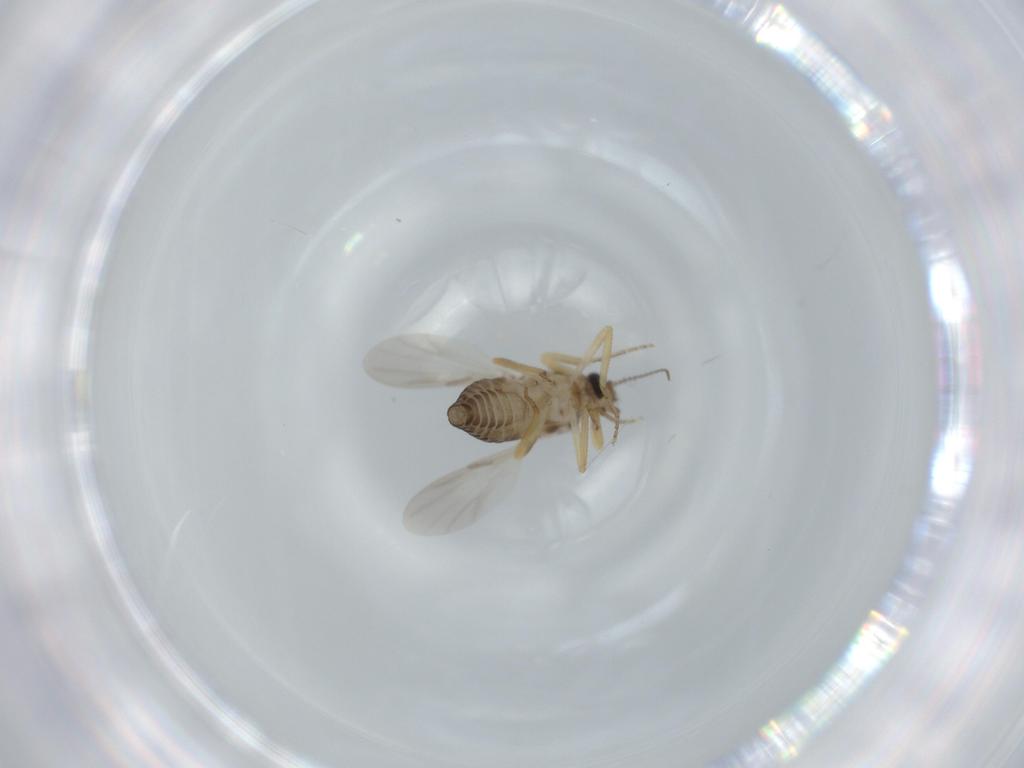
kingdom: Animalia
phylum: Arthropoda
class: Insecta
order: Diptera
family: Ceratopogonidae
